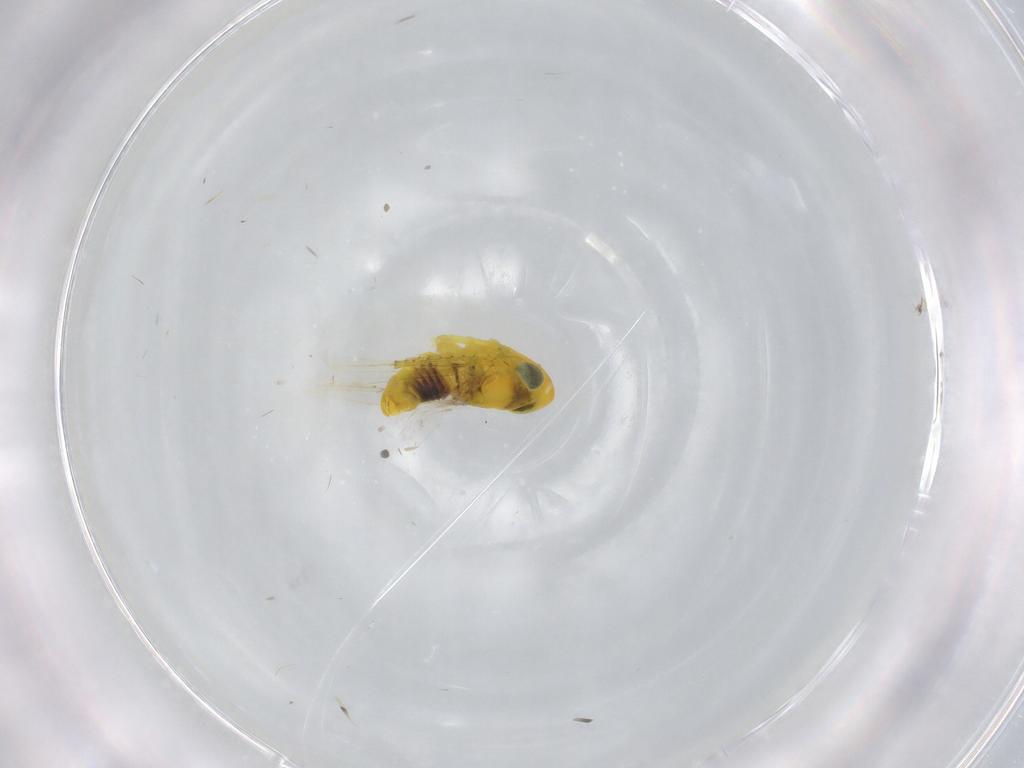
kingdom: Animalia
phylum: Arthropoda
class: Insecta
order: Hemiptera
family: Cicadellidae
